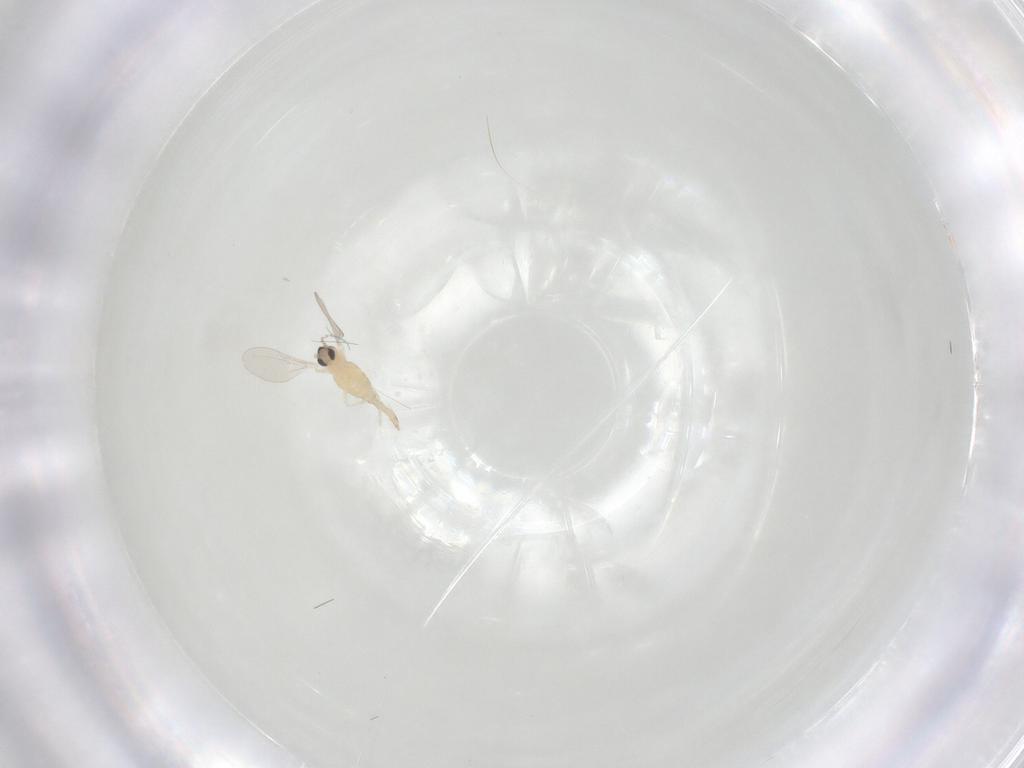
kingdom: Animalia
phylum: Arthropoda
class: Insecta
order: Diptera
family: Cecidomyiidae
